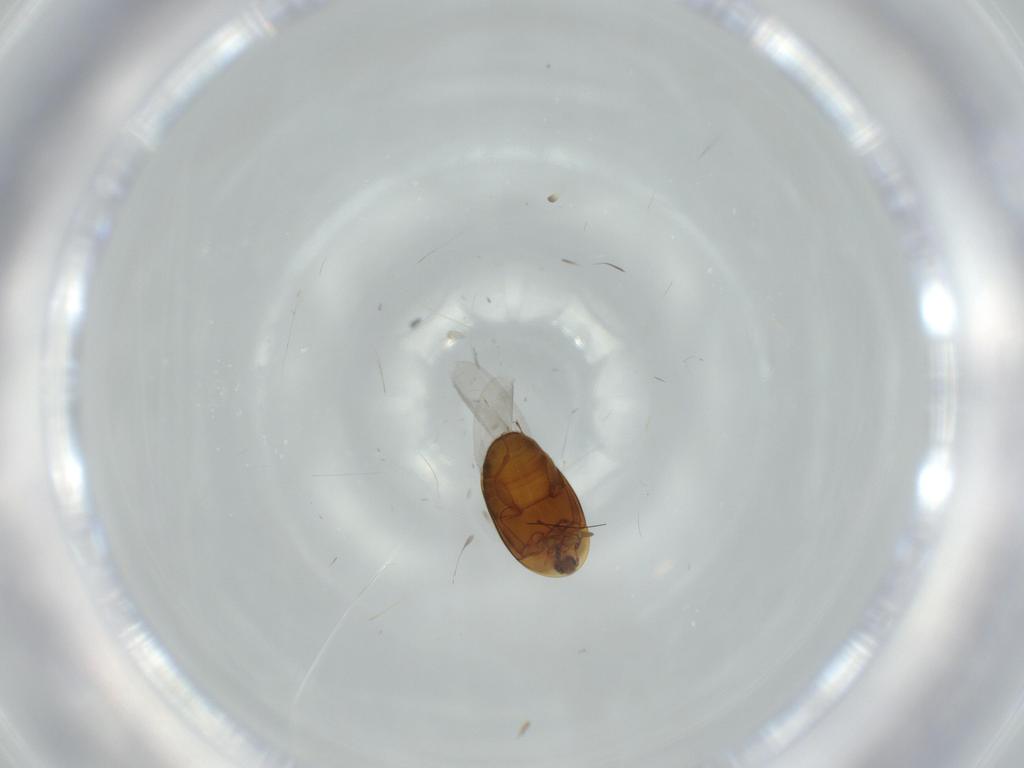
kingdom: Animalia
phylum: Arthropoda
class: Insecta
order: Coleoptera
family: Corylophidae
